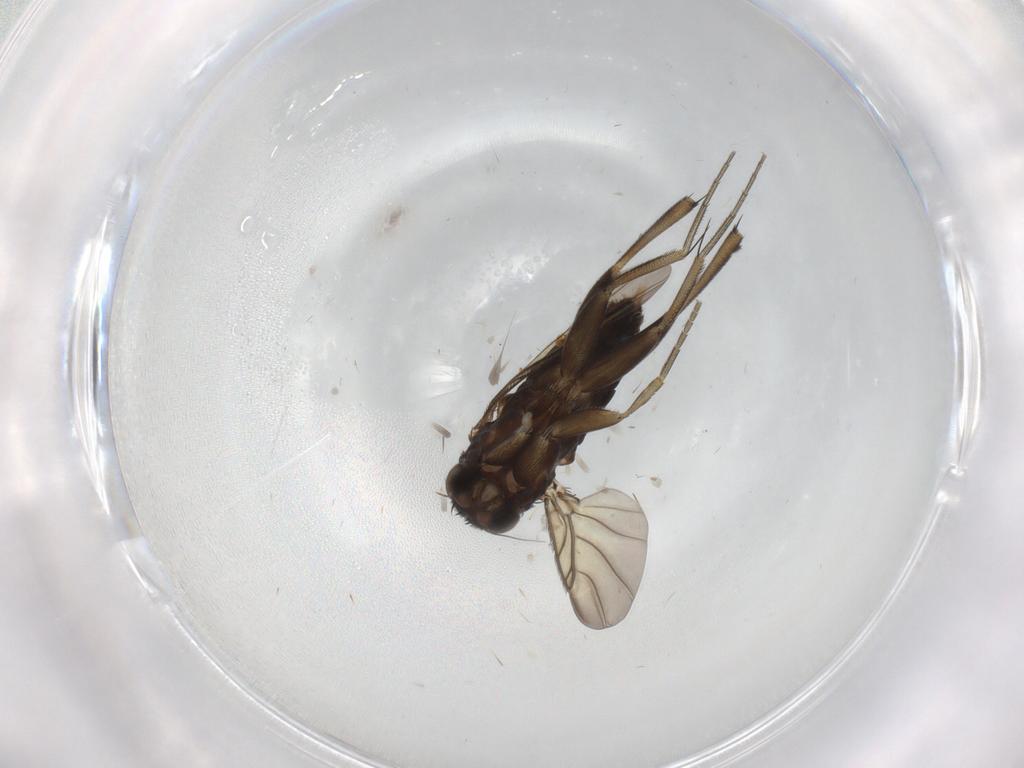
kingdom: Animalia
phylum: Arthropoda
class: Insecta
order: Diptera
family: Phoridae
